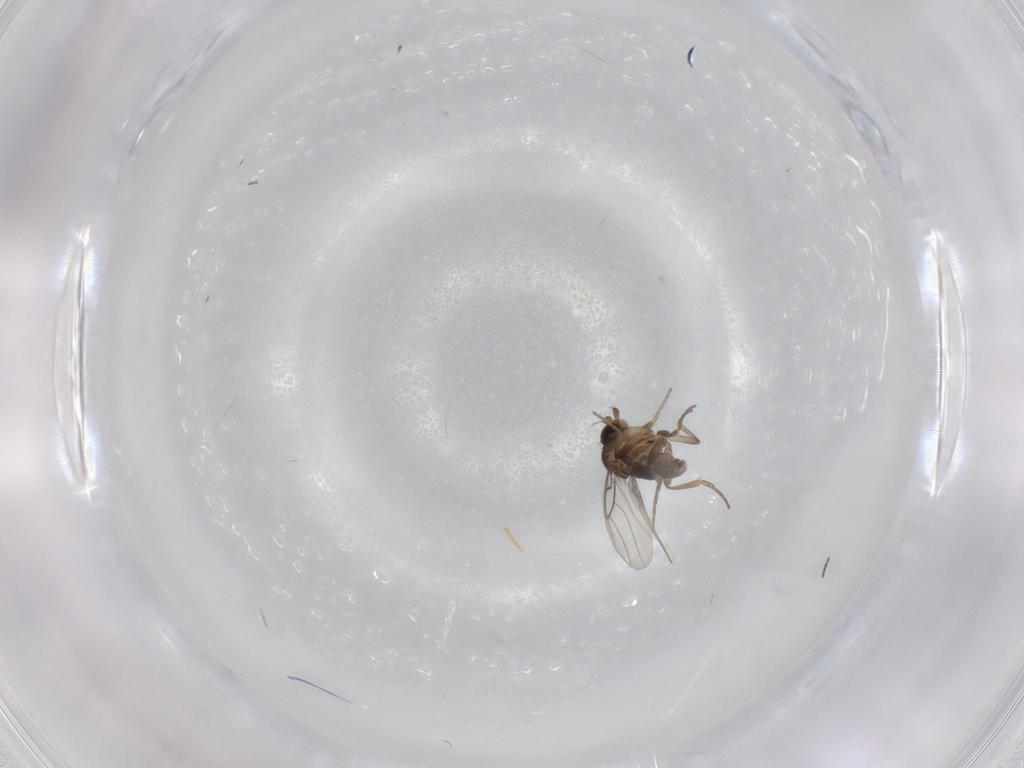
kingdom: Animalia
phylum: Arthropoda
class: Insecta
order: Diptera
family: Phoridae
